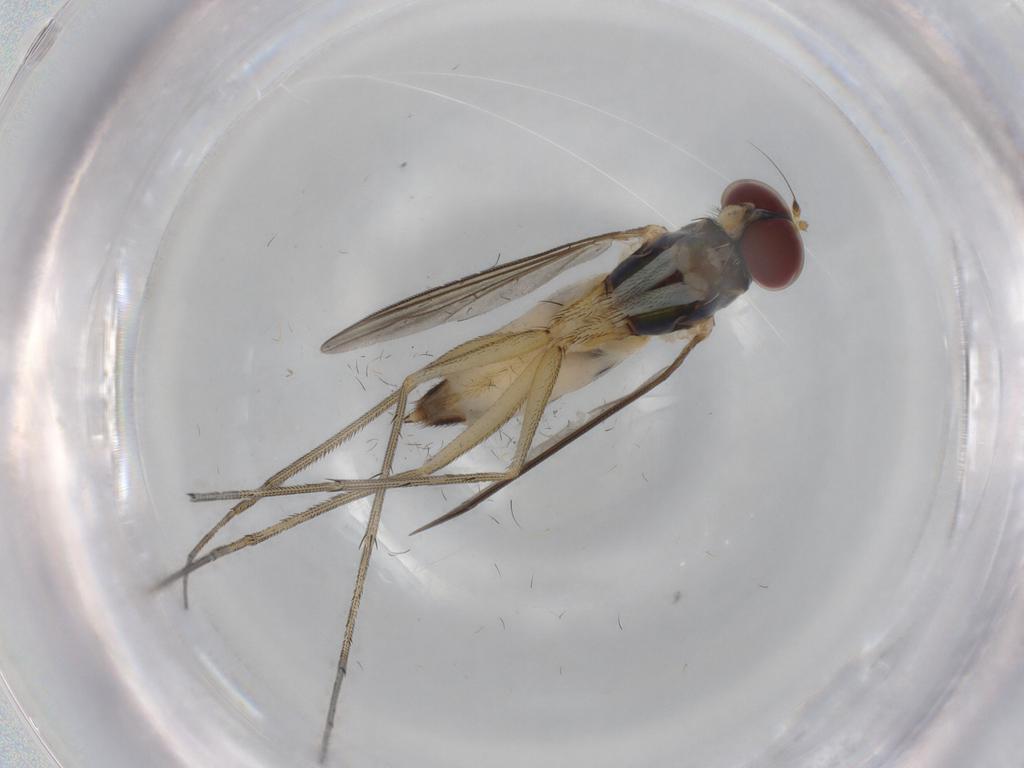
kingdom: Animalia
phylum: Arthropoda
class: Insecta
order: Diptera
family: Dolichopodidae
